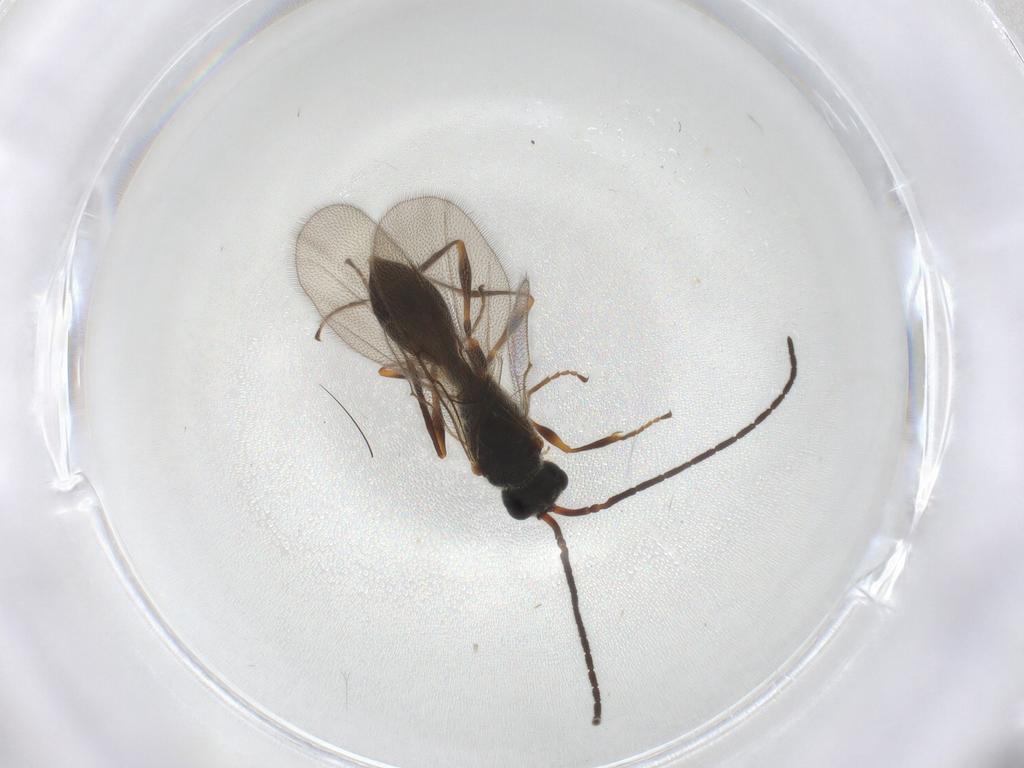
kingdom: Animalia
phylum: Arthropoda
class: Insecta
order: Hymenoptera
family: Diapriidae
